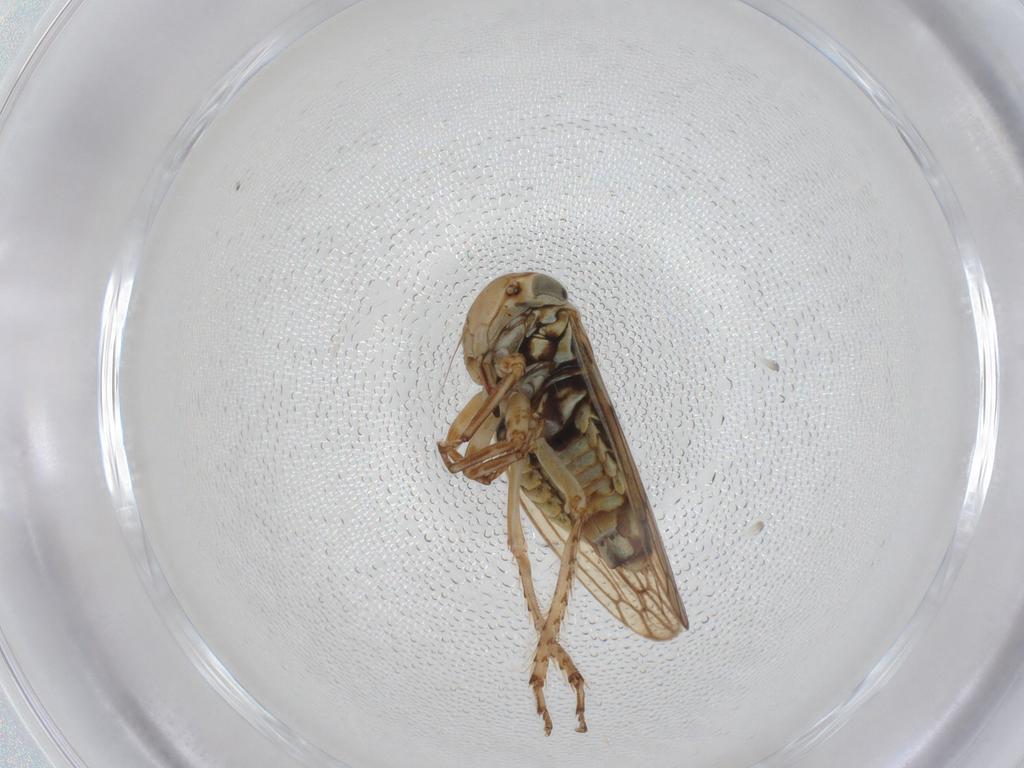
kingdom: Animalia
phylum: Arthropoda
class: Insecta
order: Hemiptera
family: Cicadellidae
